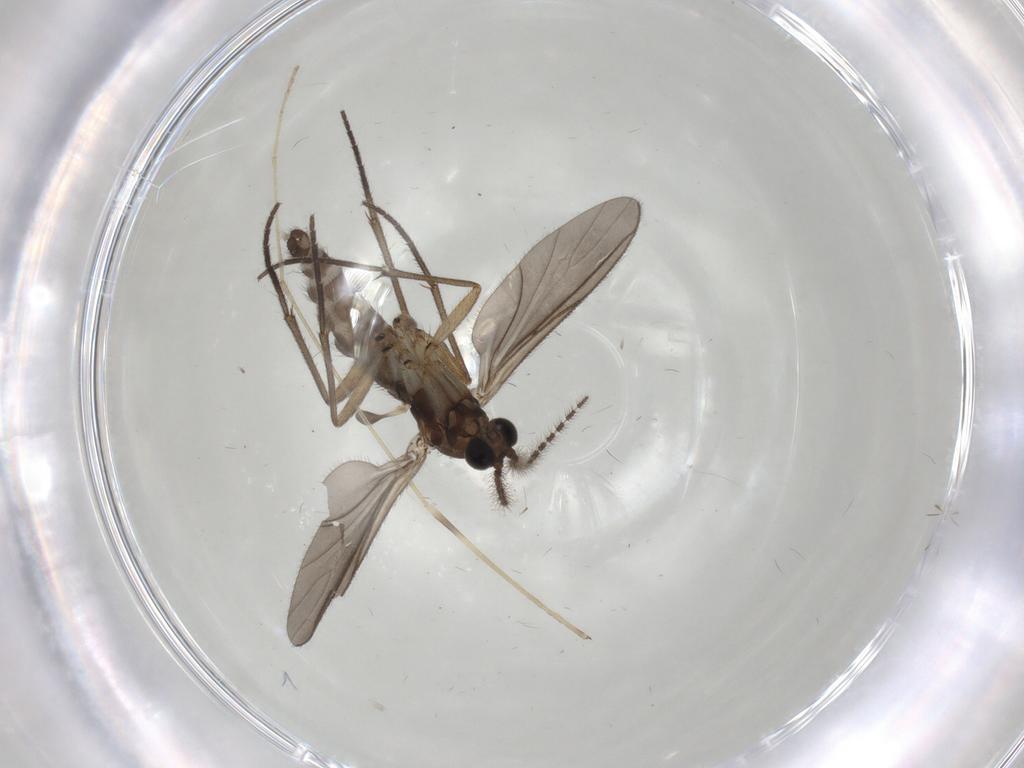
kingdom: Animalia
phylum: Arthropoda
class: Insecta
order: Diptera
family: Sciaridae
